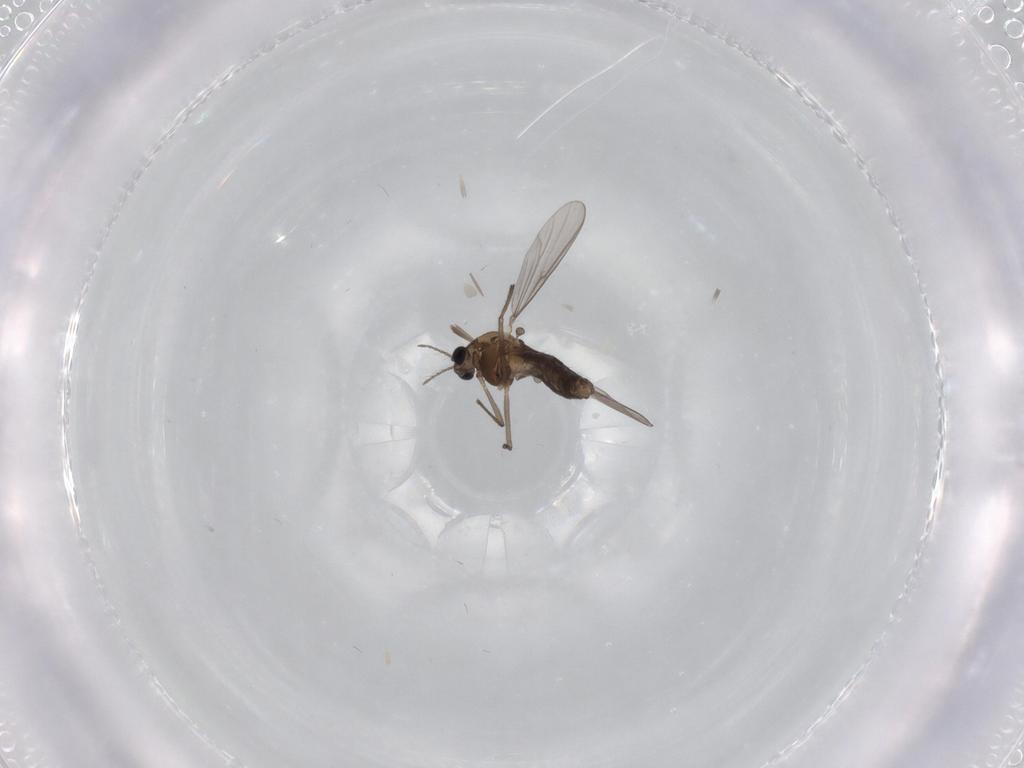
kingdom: Animalia
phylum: Arthropoda
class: Insecta
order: Diptera
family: Chironomidae
